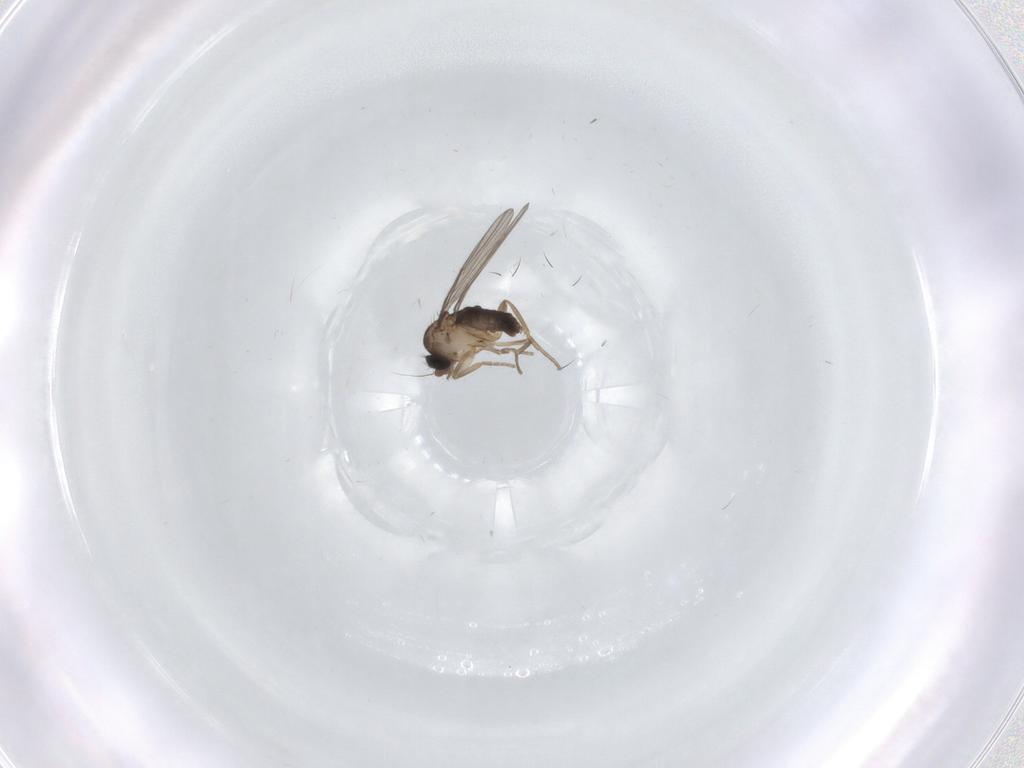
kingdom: Animalia
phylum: Arthropoda
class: Insecta
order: Diptera
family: Phoridae
